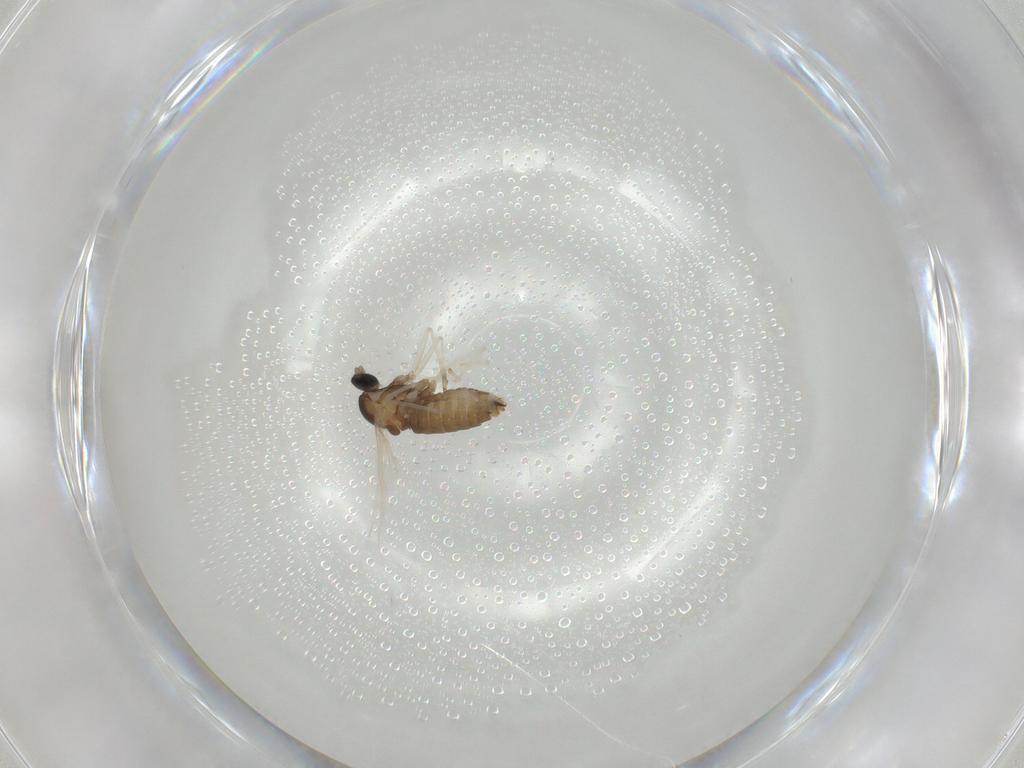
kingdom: Animalia
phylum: Arthropoda
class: Insecta
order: Diptera
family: Cecidomyiidae
